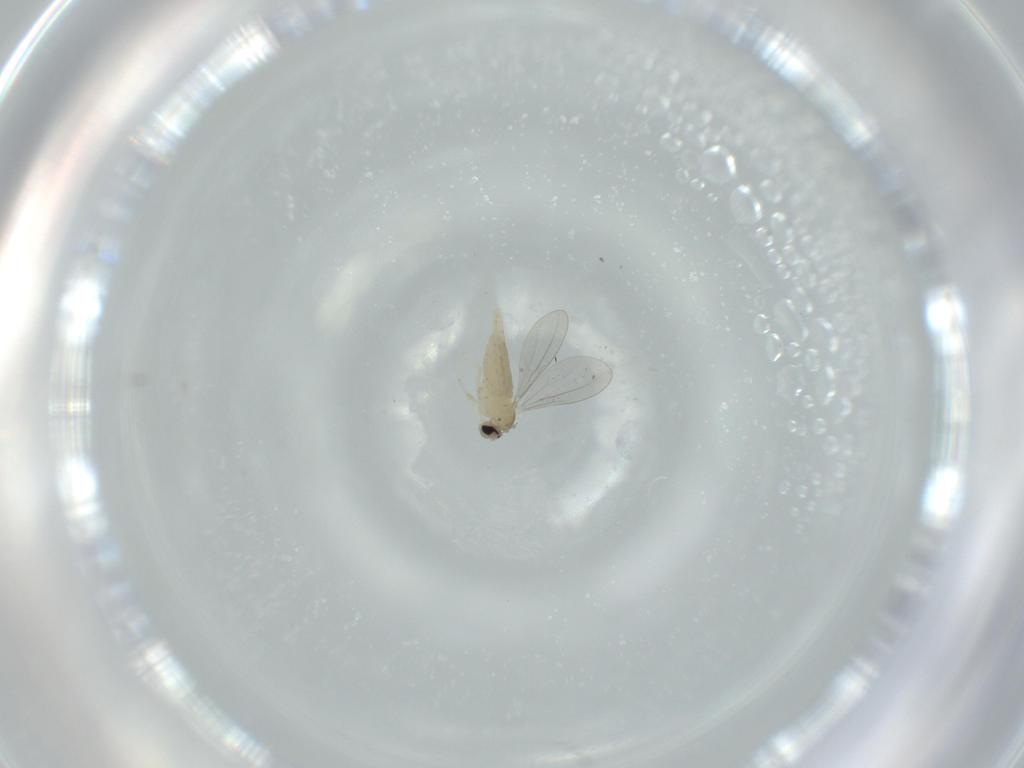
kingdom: Animalia
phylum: Arthropoda
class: Insecta
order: Diptera
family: Cecidomyiidae
